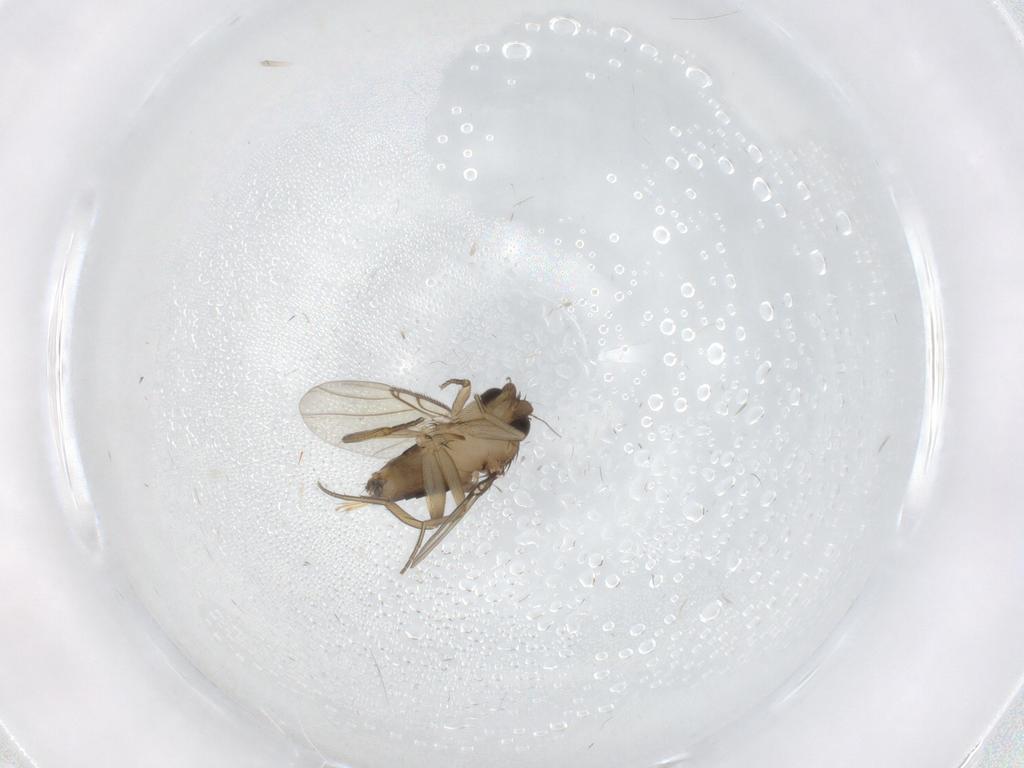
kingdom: Animalia
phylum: Arthropoda
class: Insecta
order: Diptera
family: Phoridae
